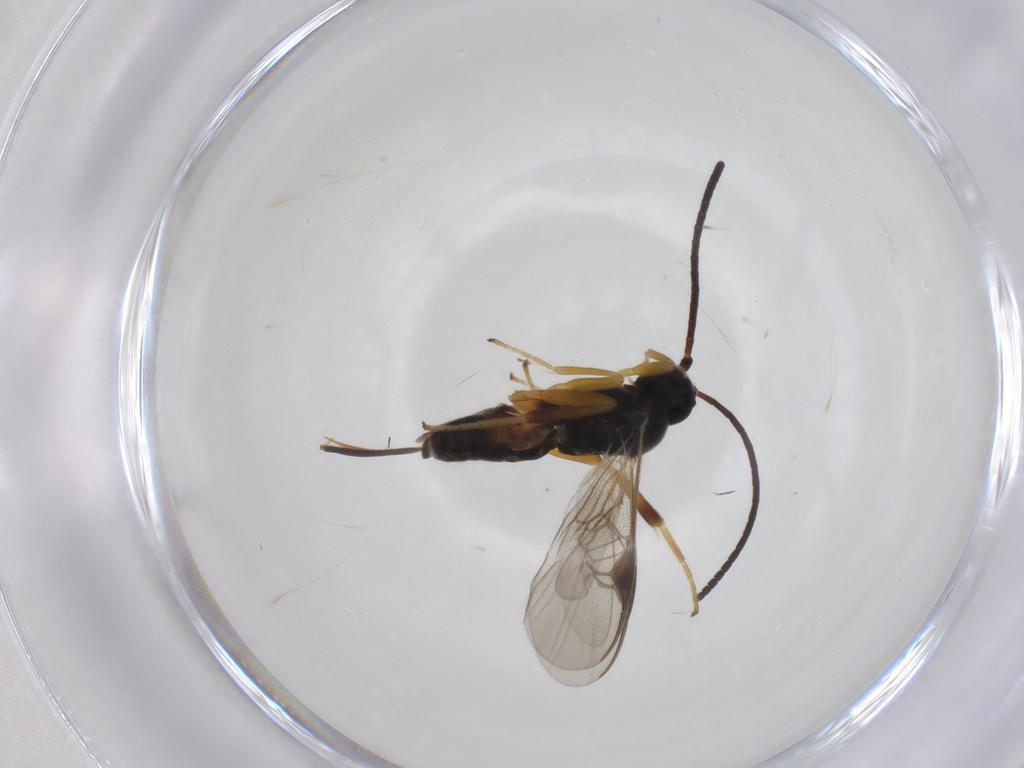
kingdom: Animalia
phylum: Arthropoda
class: Insecta
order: Hymenoptera
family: Braconidae
